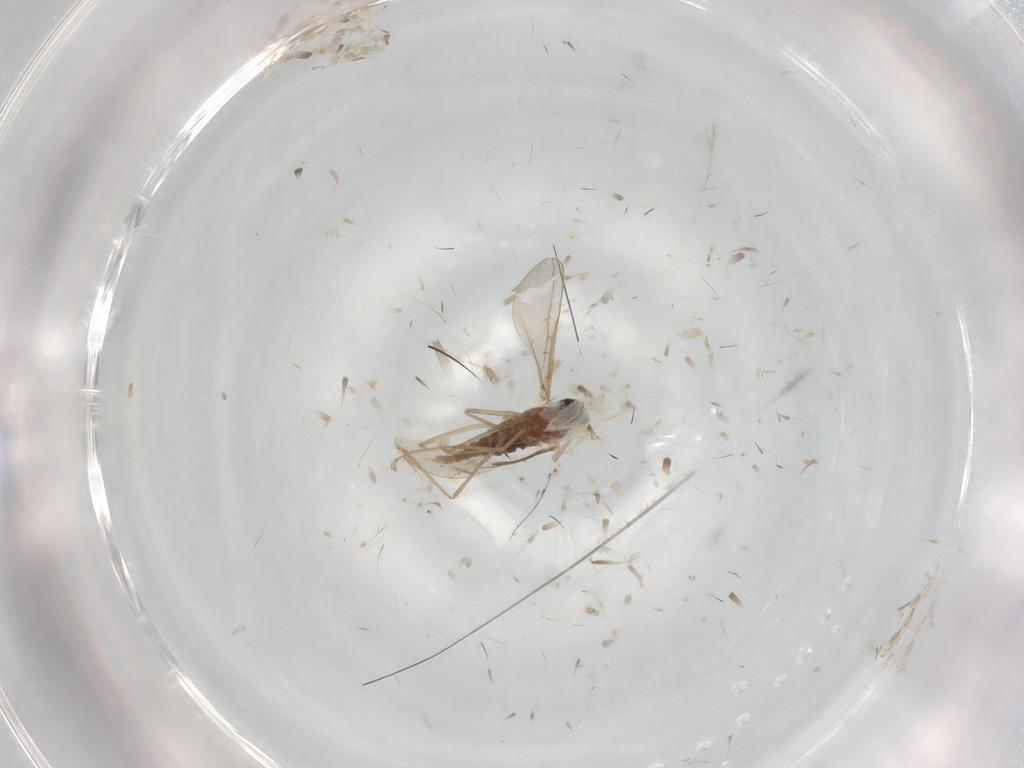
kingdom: Animalia
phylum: Arthropoda
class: Insecta
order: Diptera
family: Chironomidae
